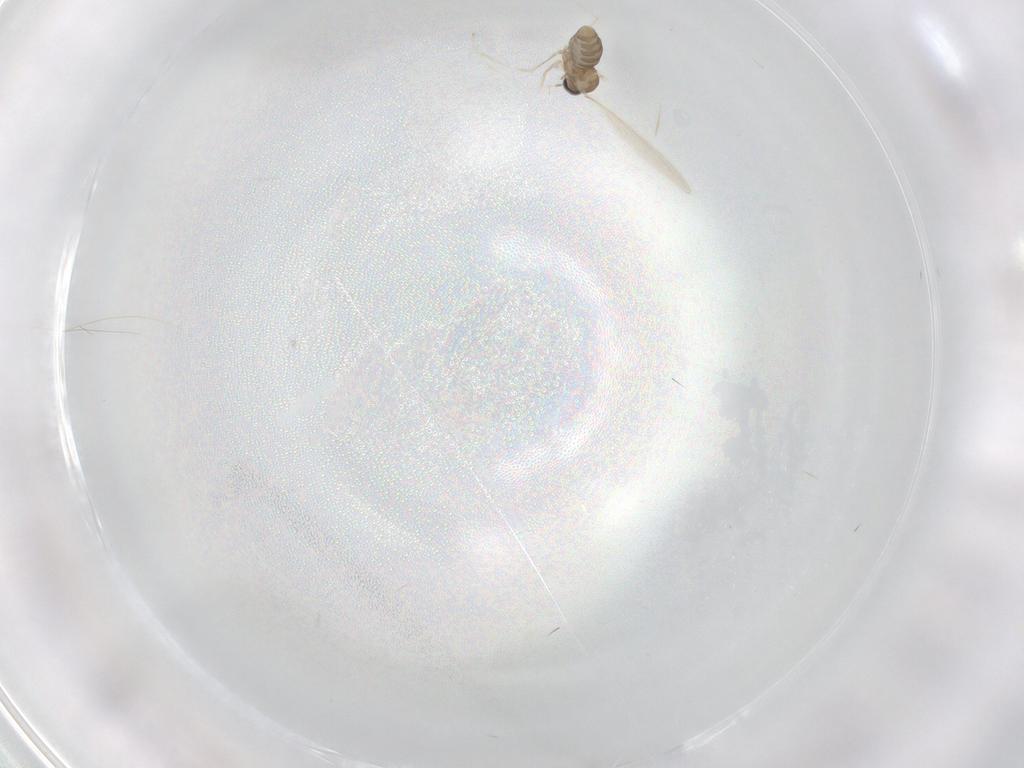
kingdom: Animalia
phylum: Arthropoda
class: Insecta
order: Diptera
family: Cecidomyiidae
